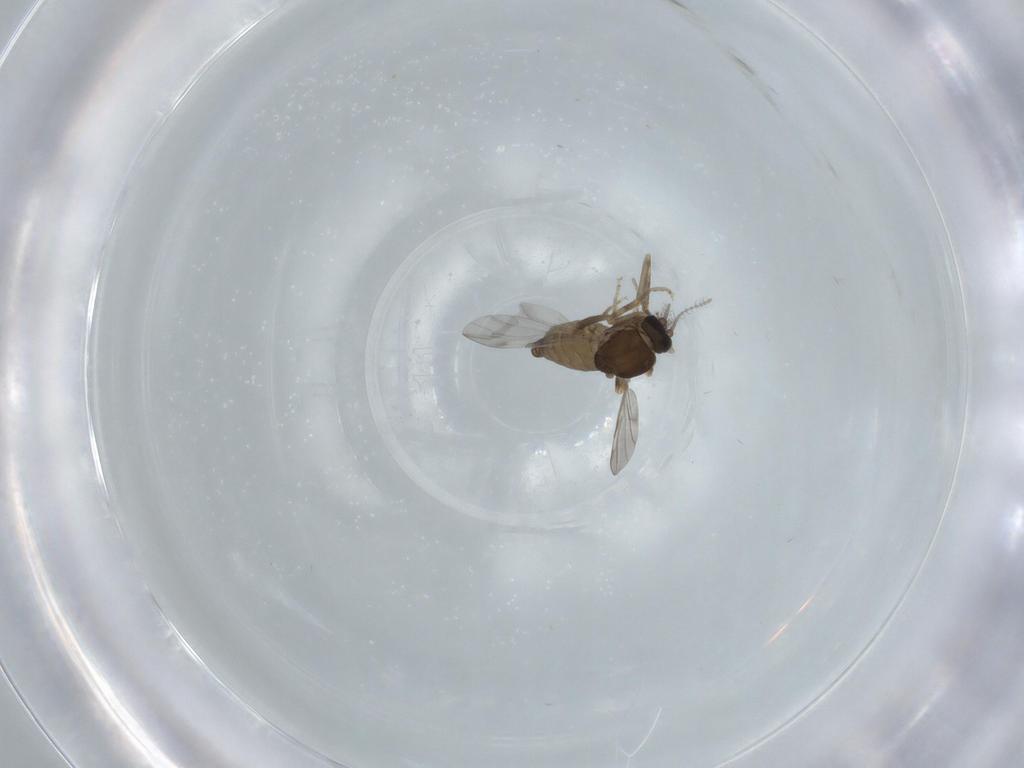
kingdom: Animalia
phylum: Arthropoda
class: Insecta
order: Diptera
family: Ceratopogonidae
